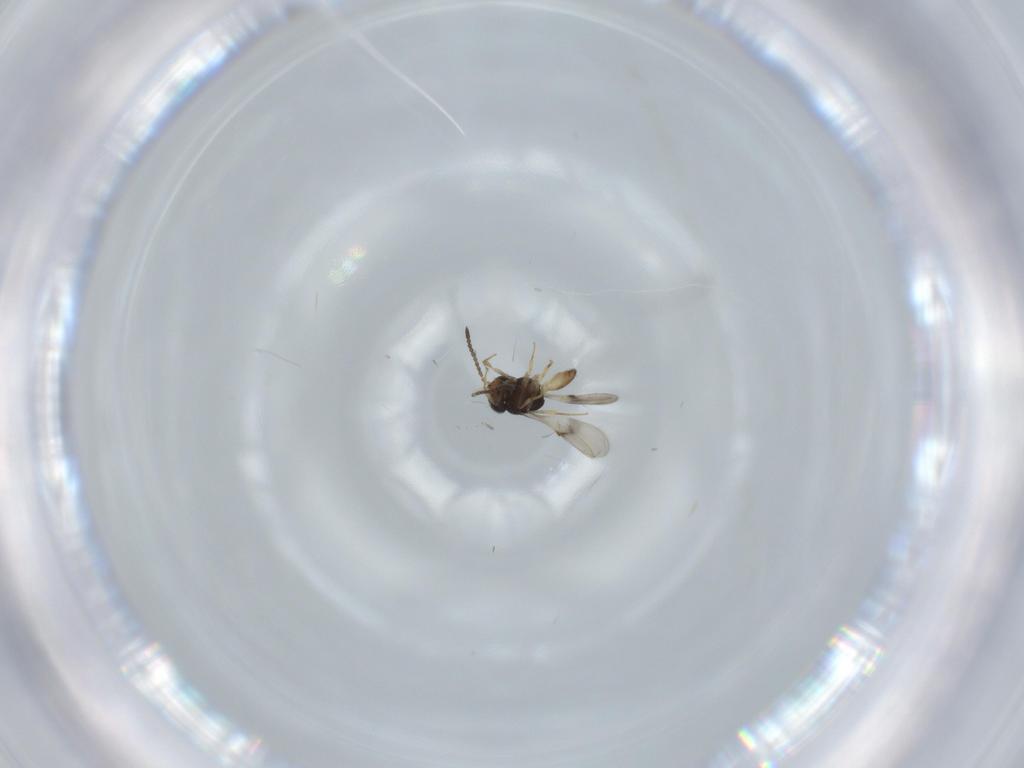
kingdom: Animalia
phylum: Arthropoda
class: Insecta
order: Hymenoptera
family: Scelionidae
